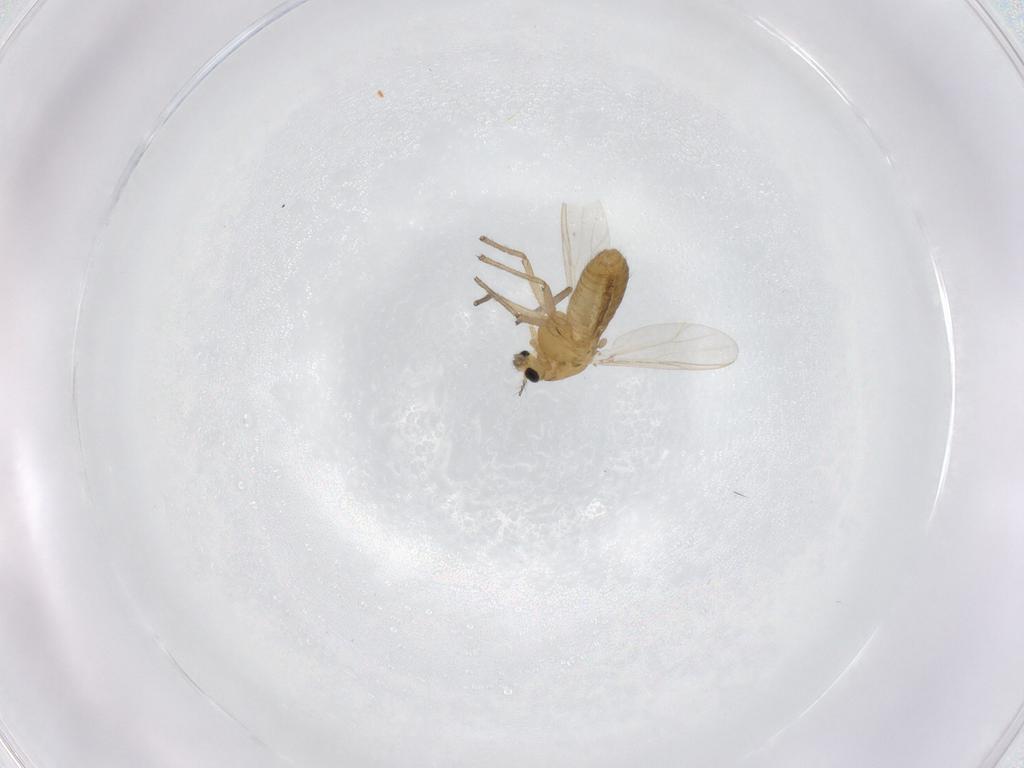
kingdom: Animalia
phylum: Arthropoda
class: Insecta
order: Diptera
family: Chironomidae
